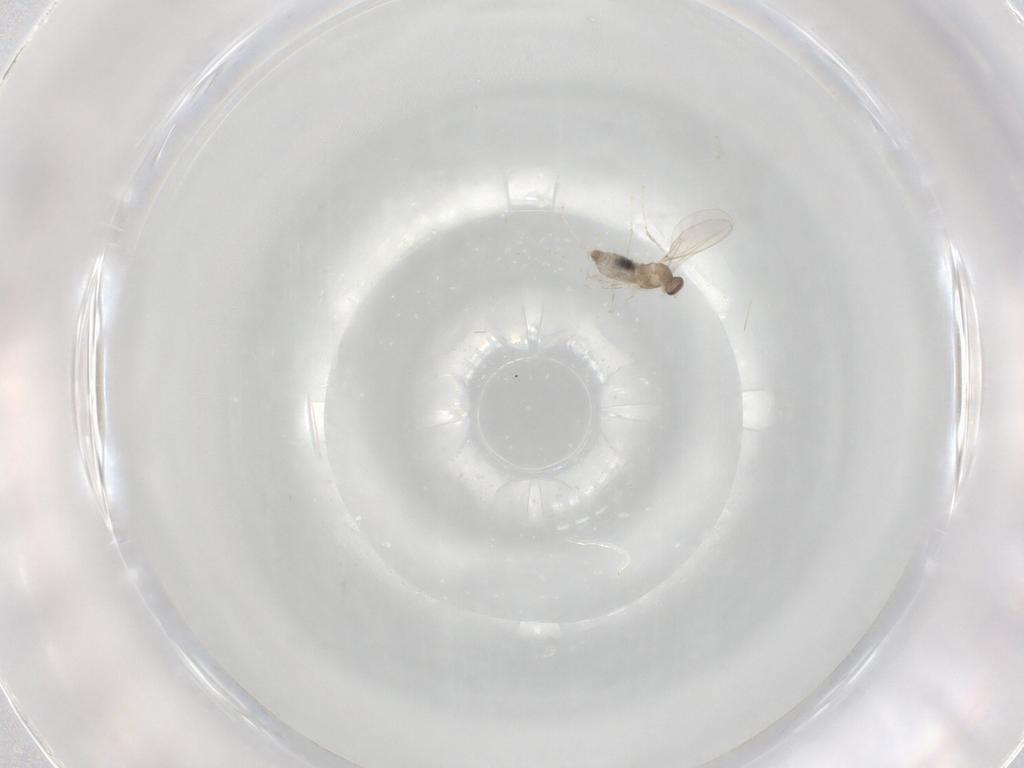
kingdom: Animalia
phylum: Arthropoda
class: Insecta
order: Diptera
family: Cecidomyiidae
